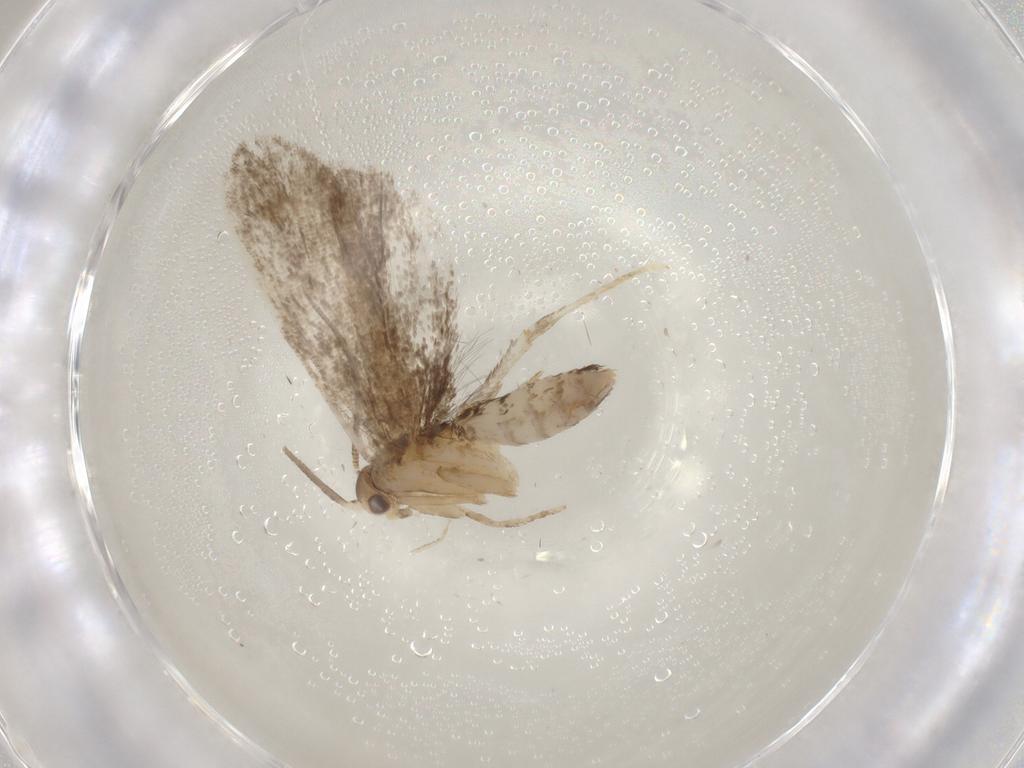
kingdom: Animalia
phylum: Arthropoda
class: Insecta
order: Lepidoptera
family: Dryadaulidae
